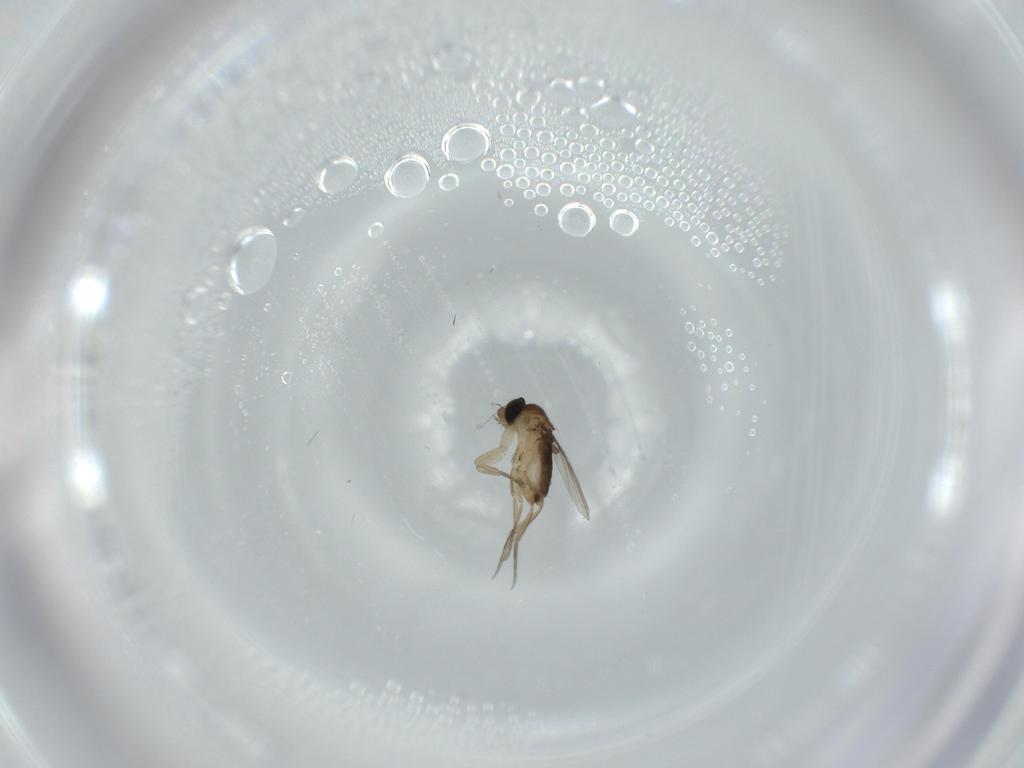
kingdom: Animalia
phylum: Arthropoda
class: Insecta
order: Diptera
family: Phoridae
